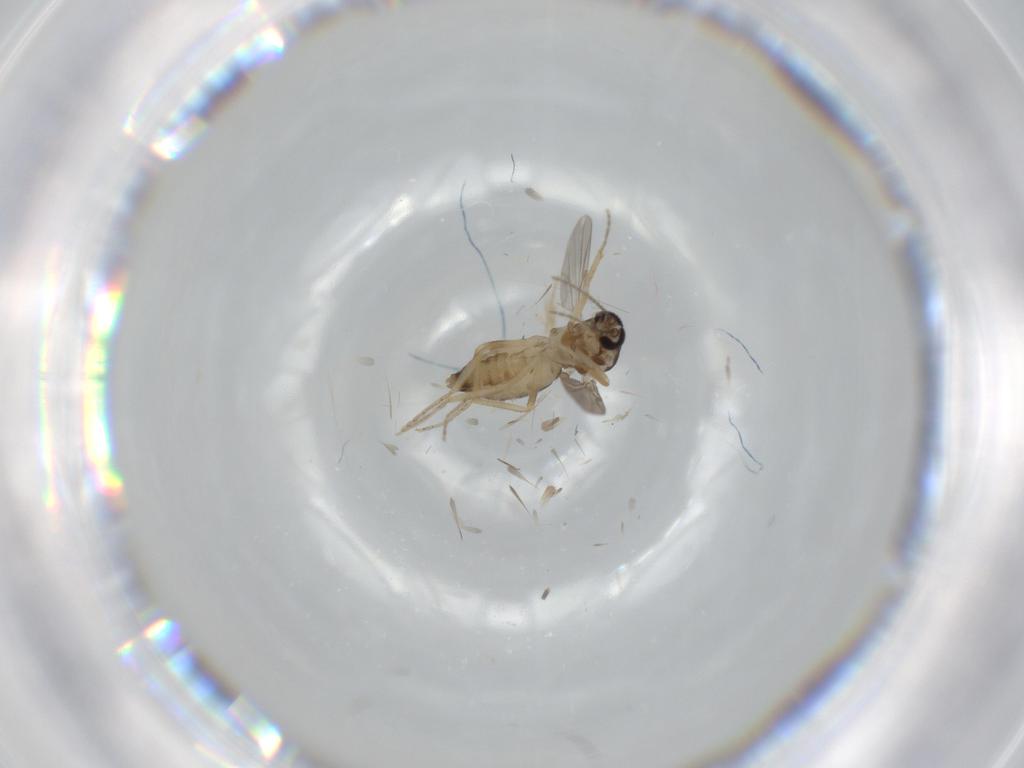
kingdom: Animalia
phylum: Arthropoda
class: Insecta
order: Diptera
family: Ceratopogonidae
